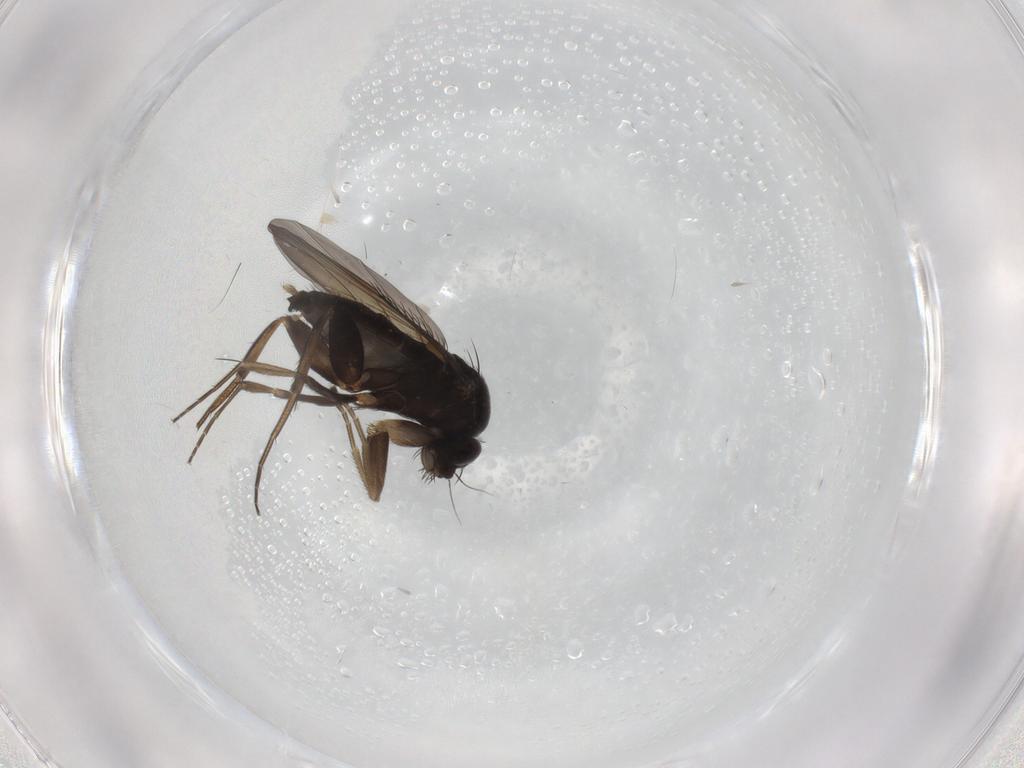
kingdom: Animalia
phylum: Arthropoda
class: Insecta
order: Diptera
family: Phoridae
